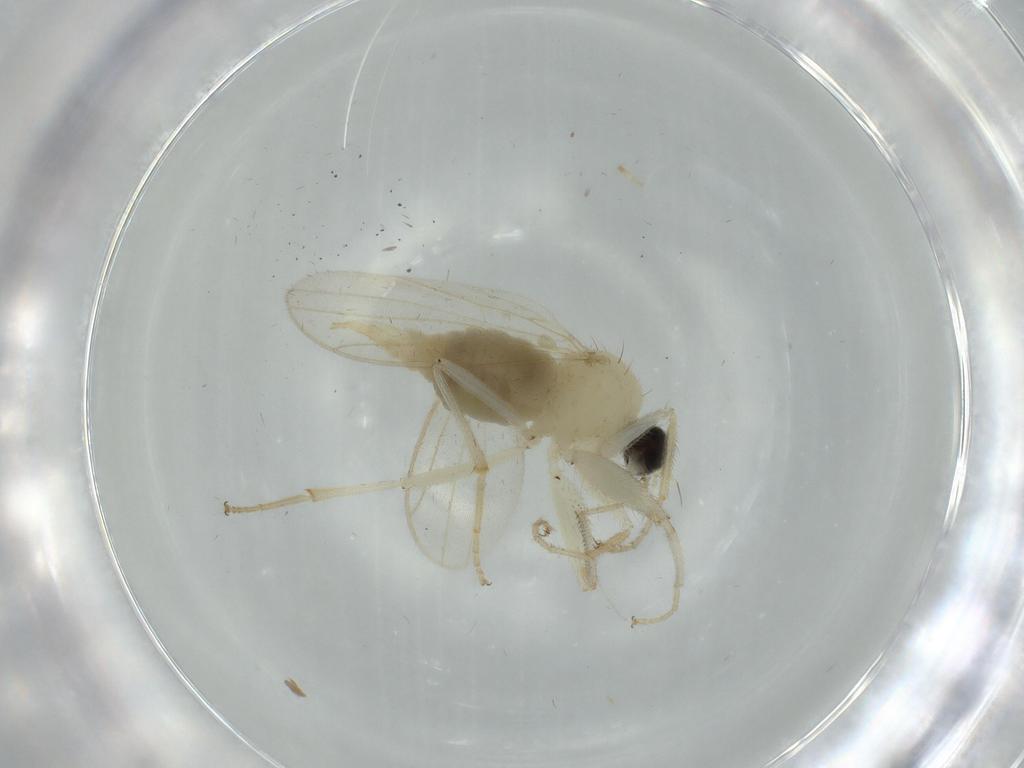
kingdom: Animalia
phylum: Arthropoda
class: Insecta
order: Diptera
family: Hybotidae
